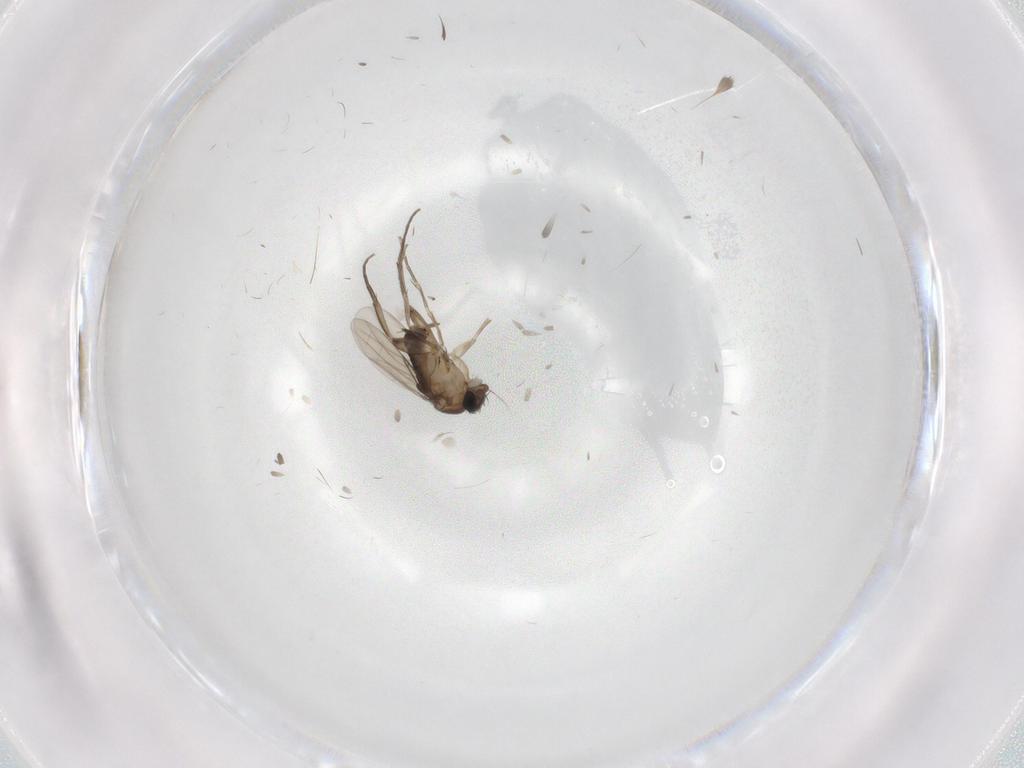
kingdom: Animalia
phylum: Arthropoda
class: Insecta
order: Diptera
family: Phoridae
